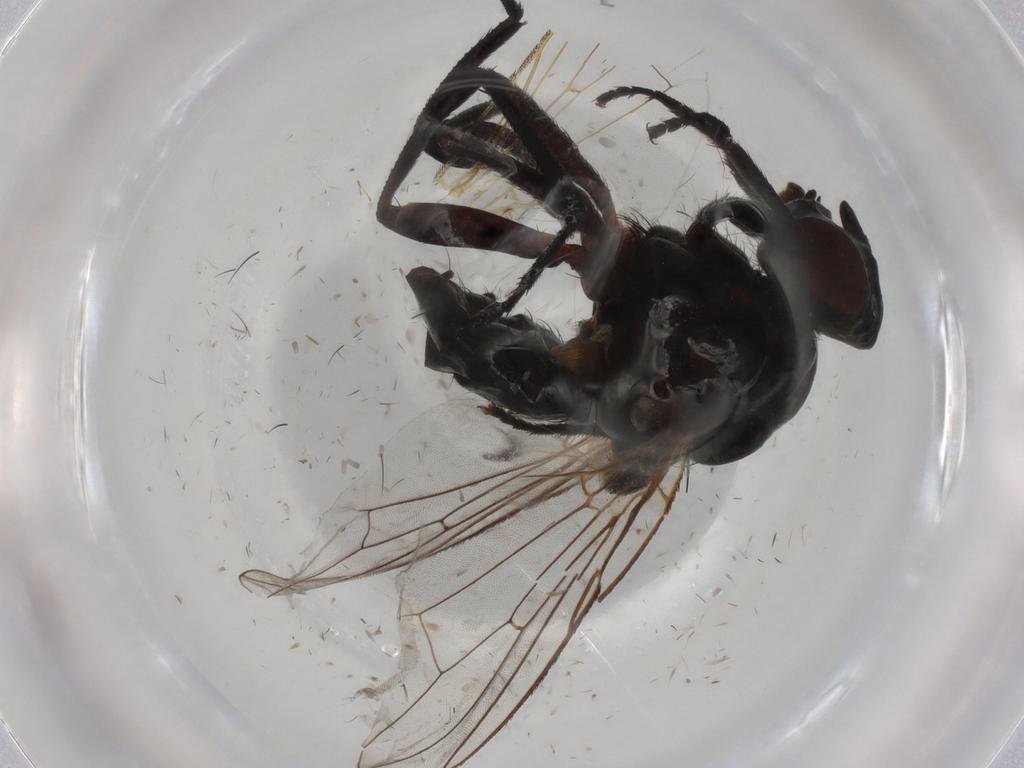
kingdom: Animalia
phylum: Arthropoda
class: Insecta
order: Diptera
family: Anthomyiidae
